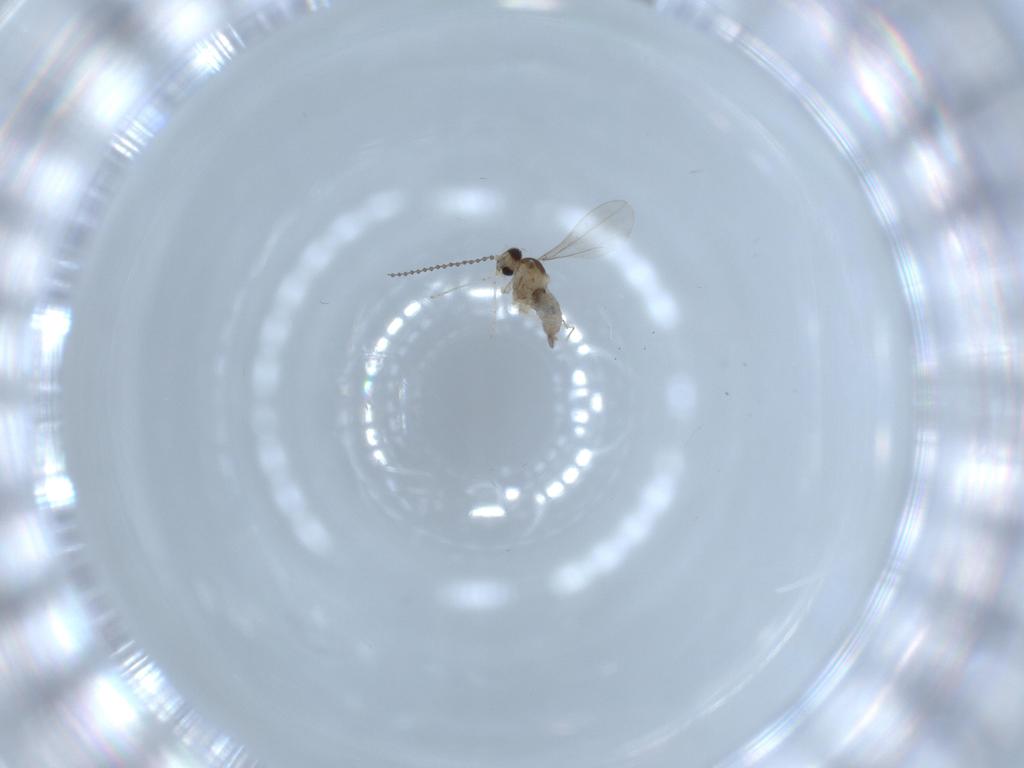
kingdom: Animalia
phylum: Arthropoda
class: Insecta
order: Diptera
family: Cecidomyiidae
